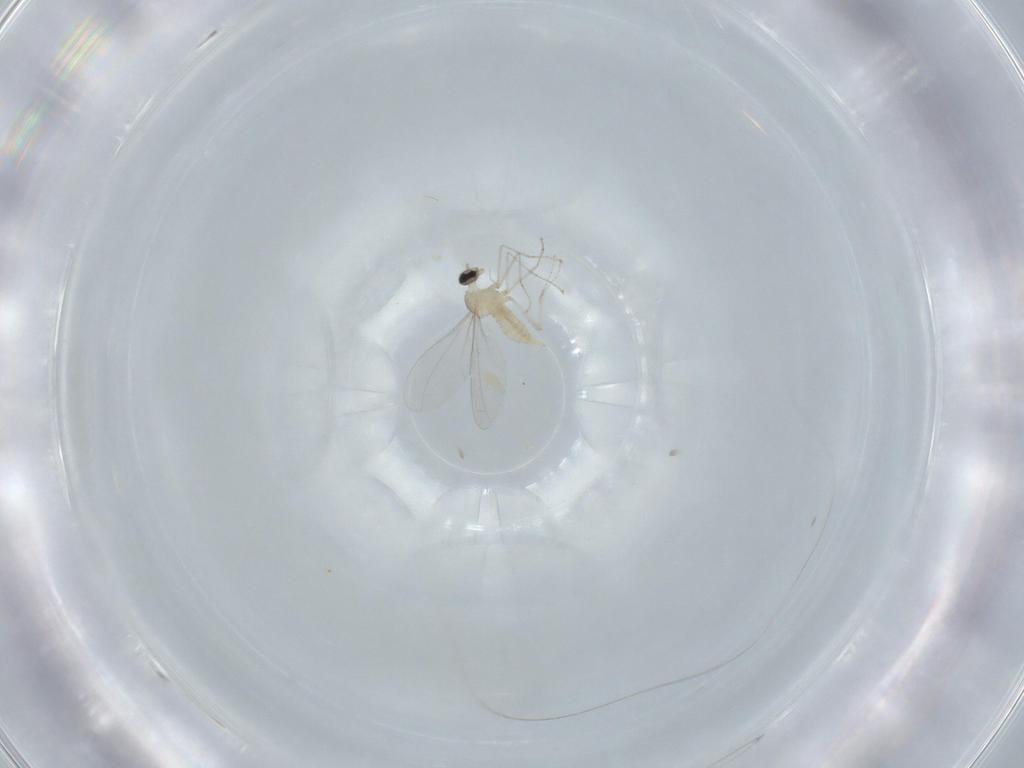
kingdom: Animalia
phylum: Arthropoda
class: Insecta
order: Diptera
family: Cecidomyiidae
